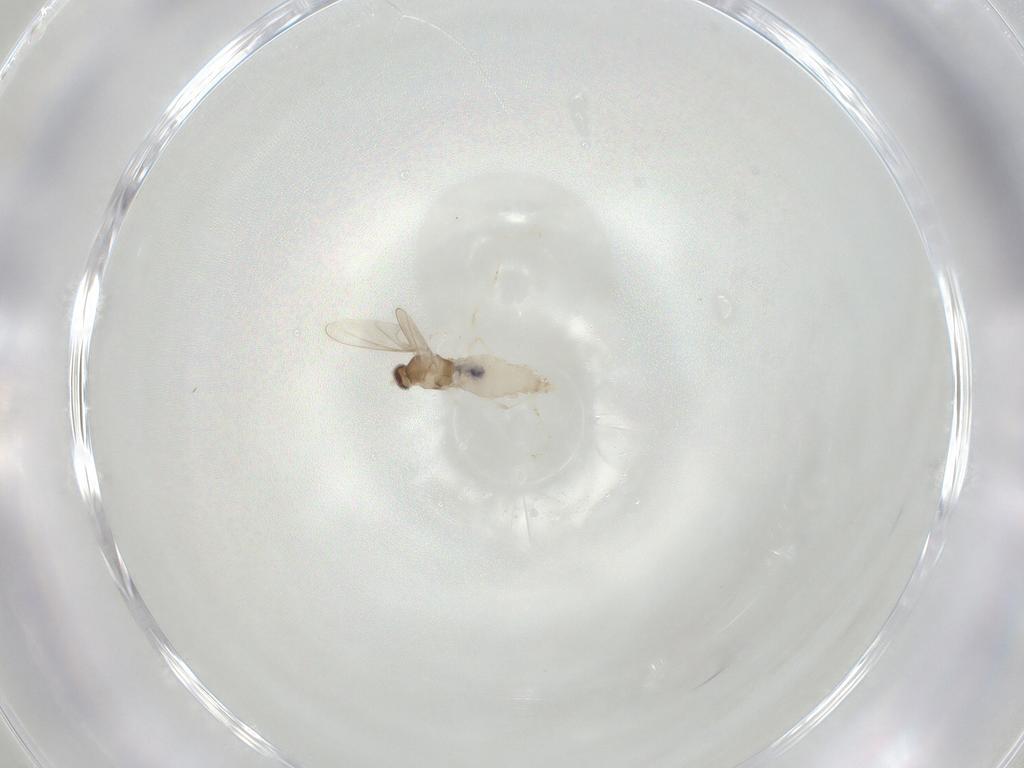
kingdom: Animalia
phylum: Arthropoda
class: Insecta
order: Diptera
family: Cecidomyiidae
